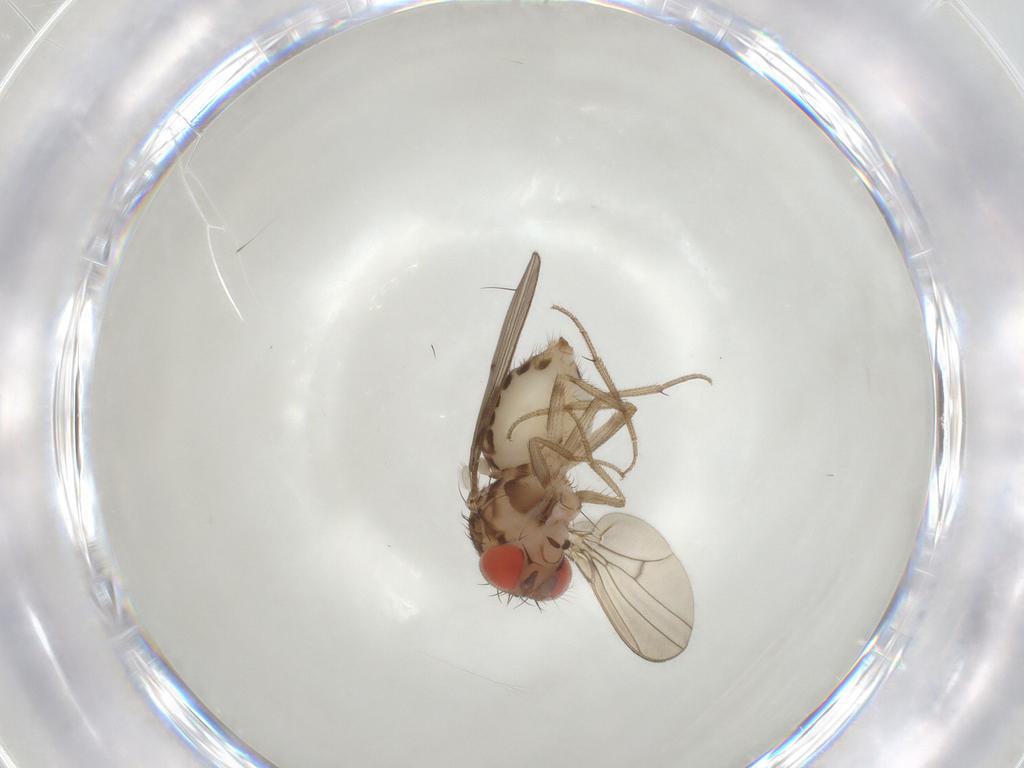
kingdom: Animalia
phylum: Arthropoda
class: Insecta
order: Diptera
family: Drosophilidae
